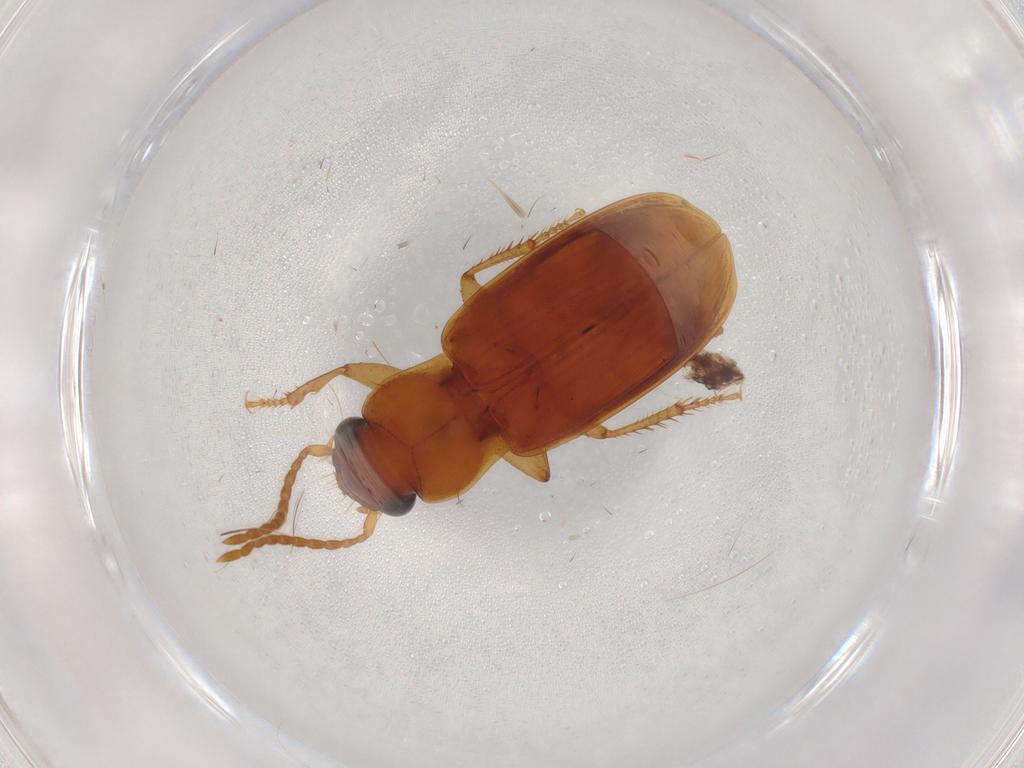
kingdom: Animalia
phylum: Arthropoda
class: Insecta
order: Coleoptera
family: Carabidae
